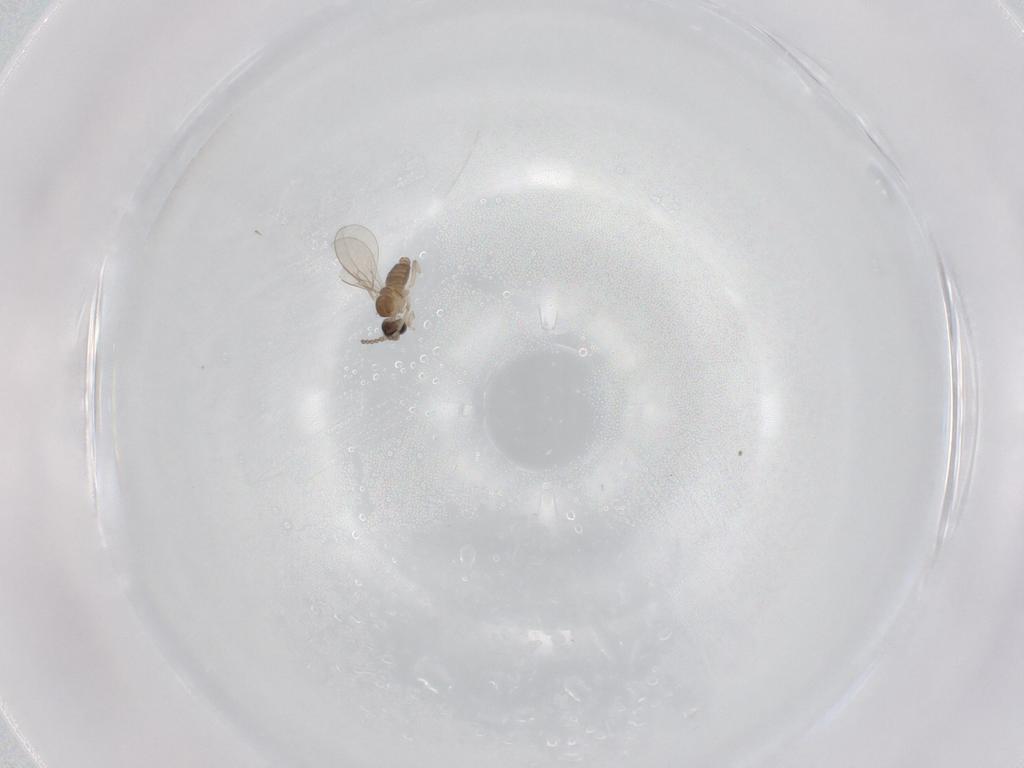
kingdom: Animalia
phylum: Arthropoda
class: Insecta
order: Diptera
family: Cecidomyiidae
